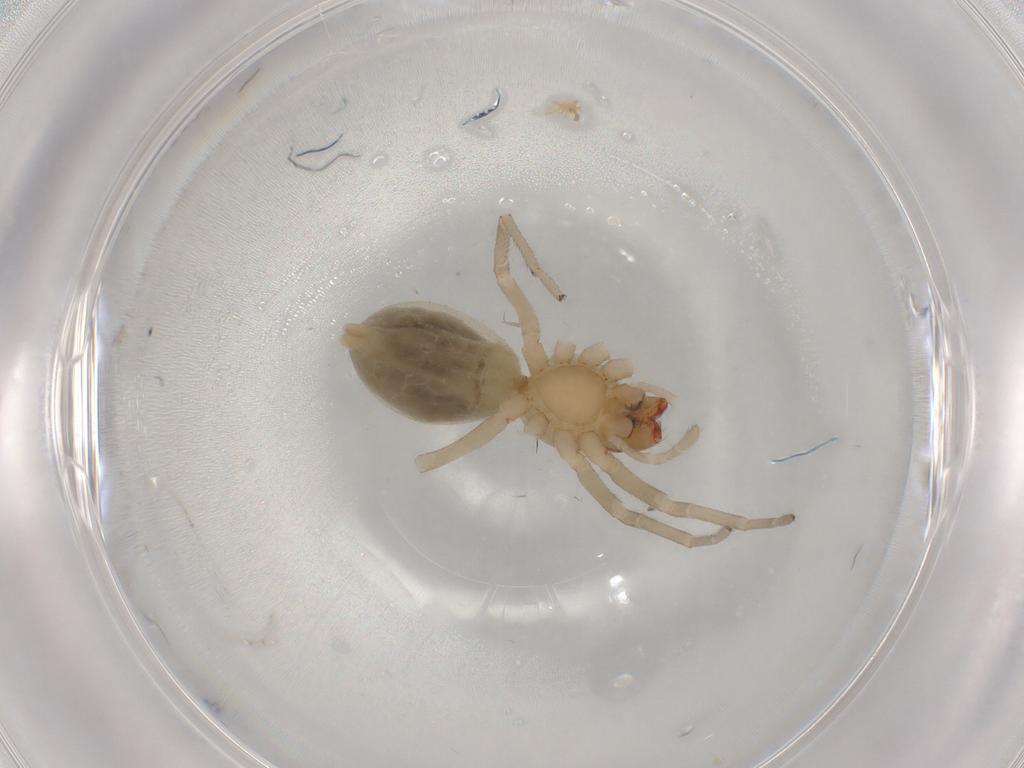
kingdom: Animalia
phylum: Arthropoda
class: Arachnida
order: Araneae
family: Trachelidae
